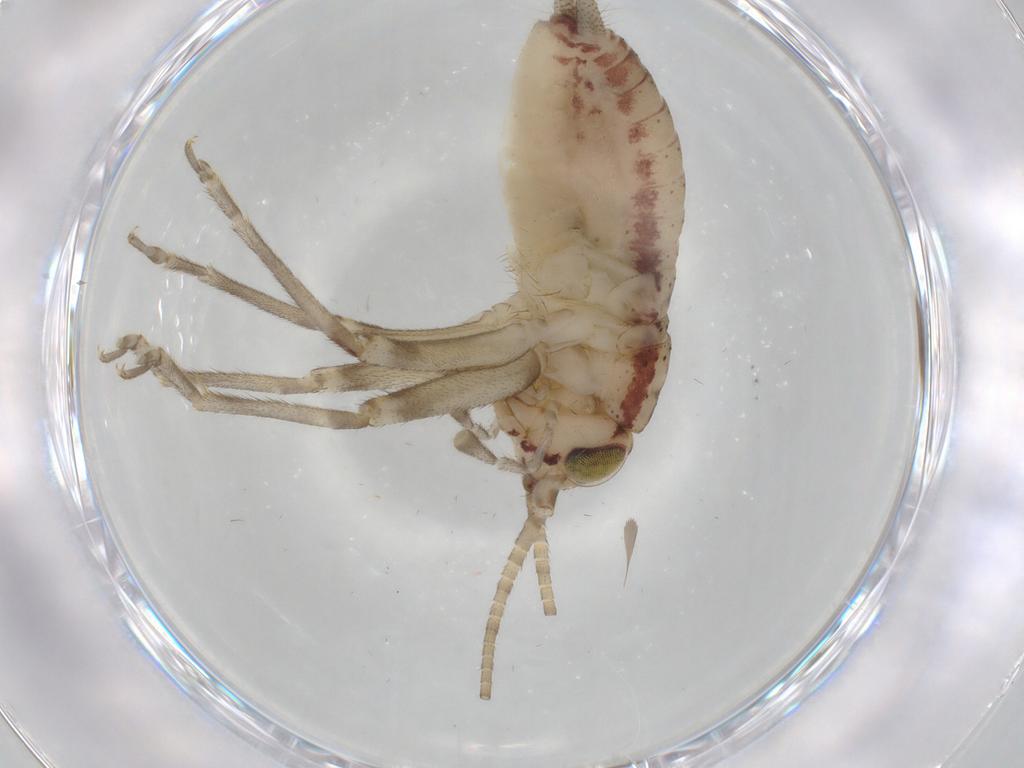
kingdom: Animalia
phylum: Arthropoda
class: Insecta
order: Orthoptera
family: Trigonidiidae
